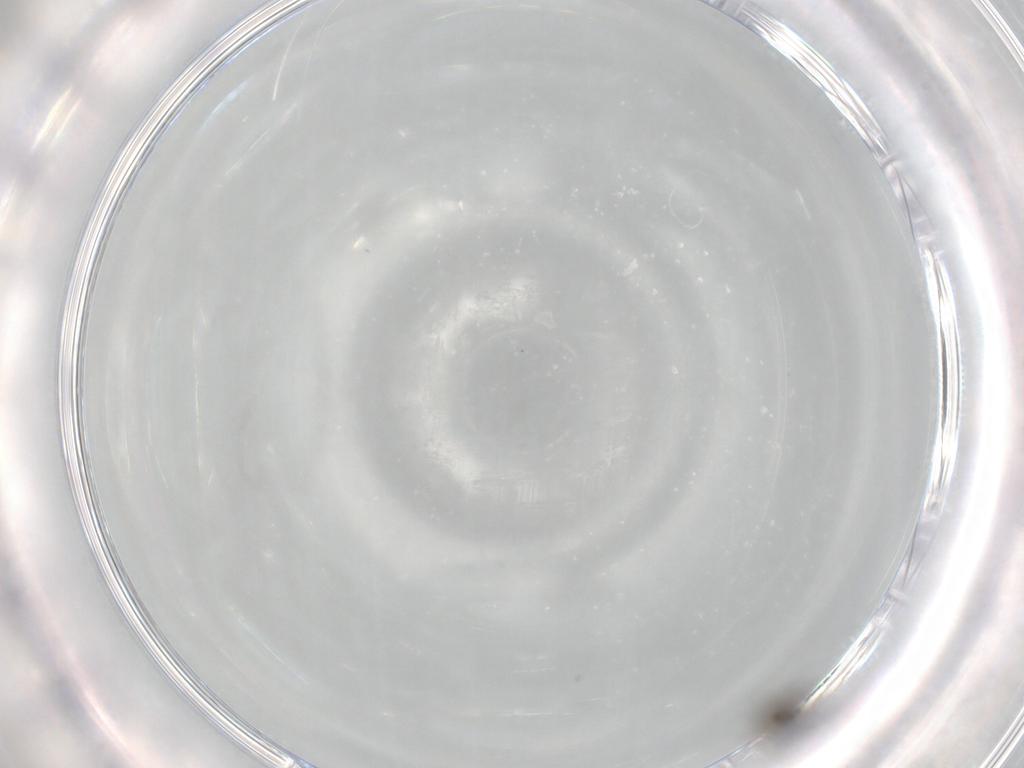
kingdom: Animalia
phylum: Arthropoda
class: Insecta
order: Diptera
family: Sciaridae
